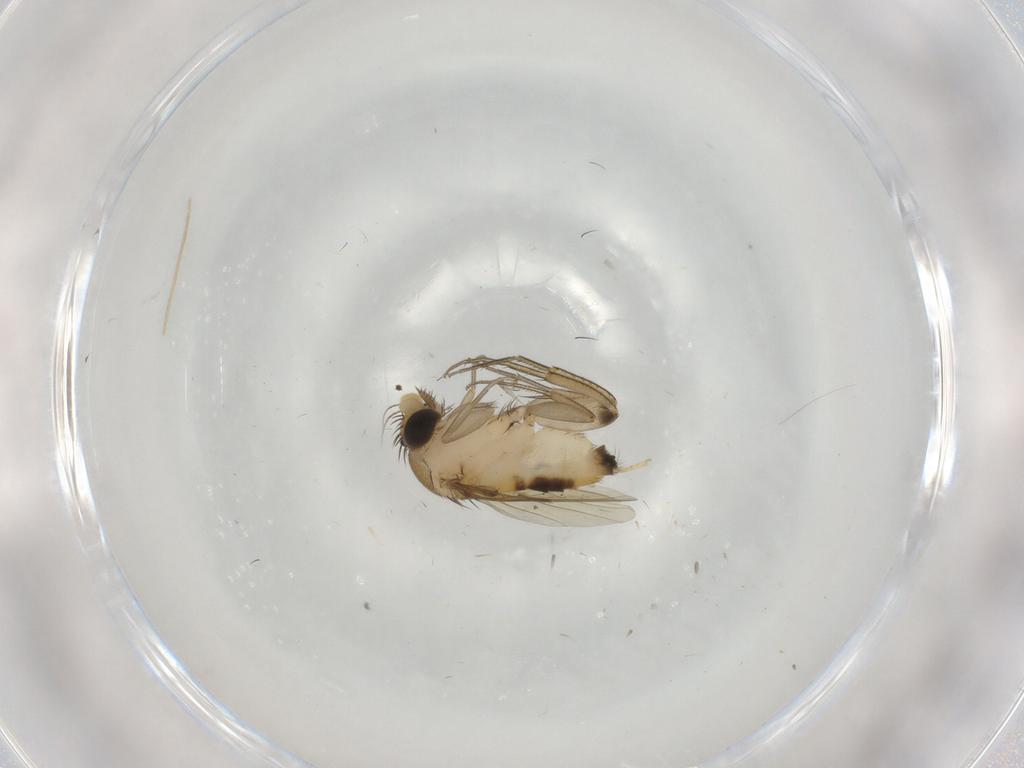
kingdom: Animalia
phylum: Arthropoda
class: Insecta
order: Diptera
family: Phoridae
